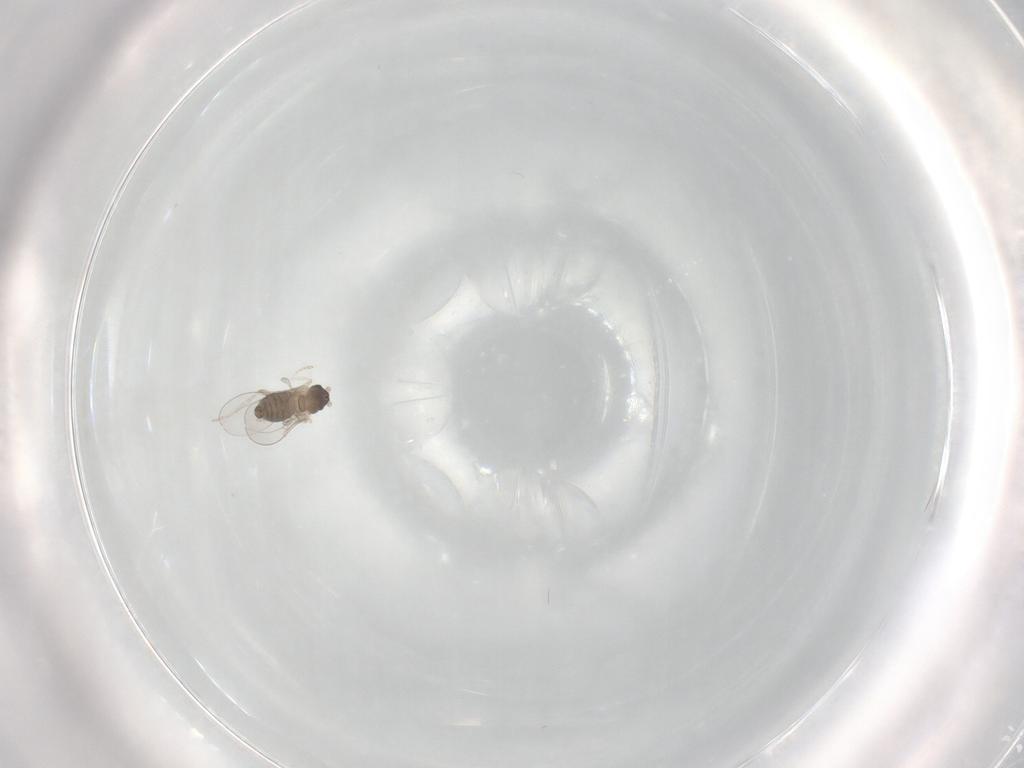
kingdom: Animalia
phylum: Arthropoda
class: Insecta
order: Diptera
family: Sciaridae
